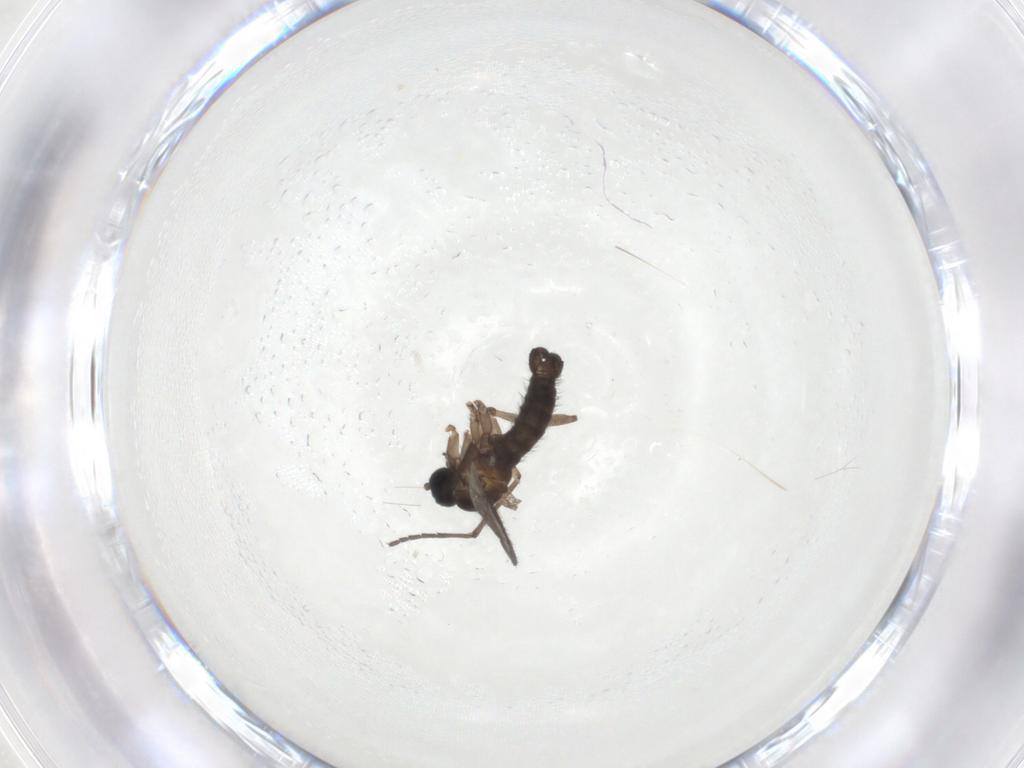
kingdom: Animalia
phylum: Arthropoda
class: Insecta
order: Diptera
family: Sciaridae
